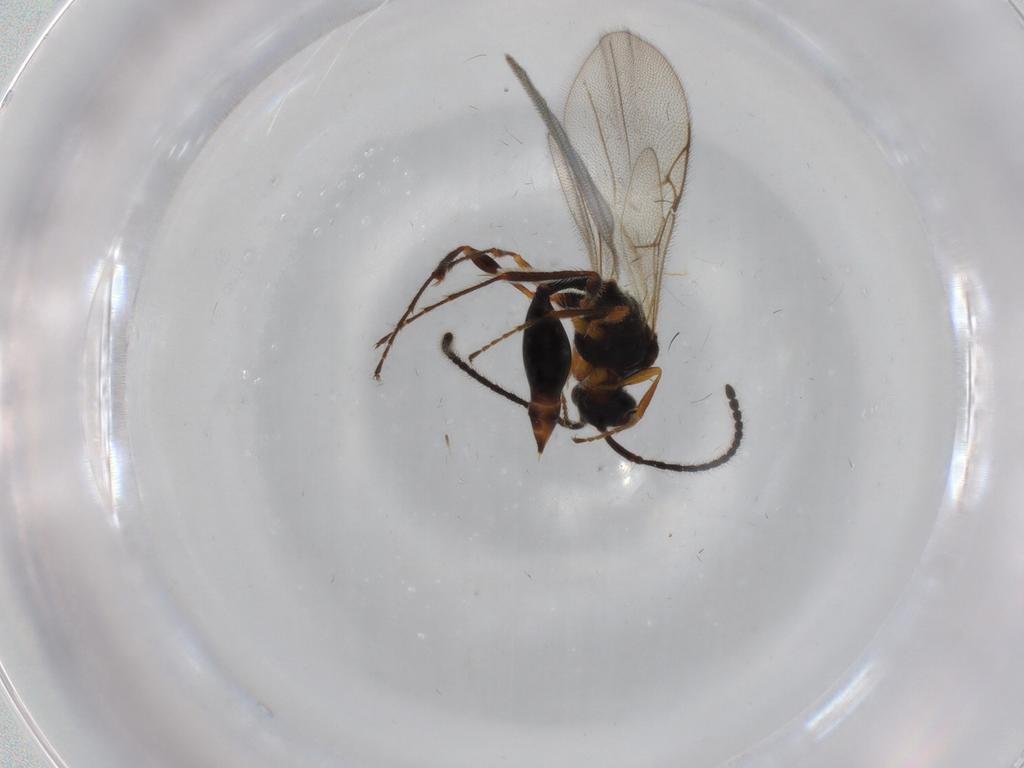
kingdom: Animalia
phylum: Arthropoda
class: Insecta
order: Hymenoptera
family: Diapriidae
